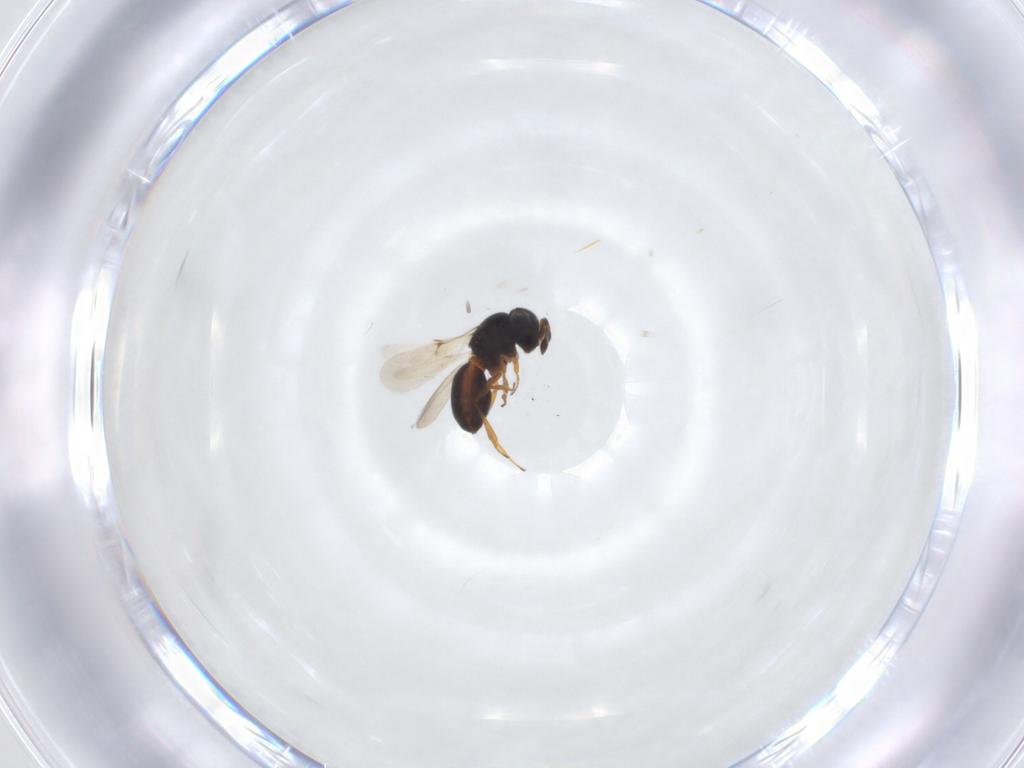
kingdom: Animalia
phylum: Arthropoda
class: Insecta
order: Hymenoptera
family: Scelionidae
